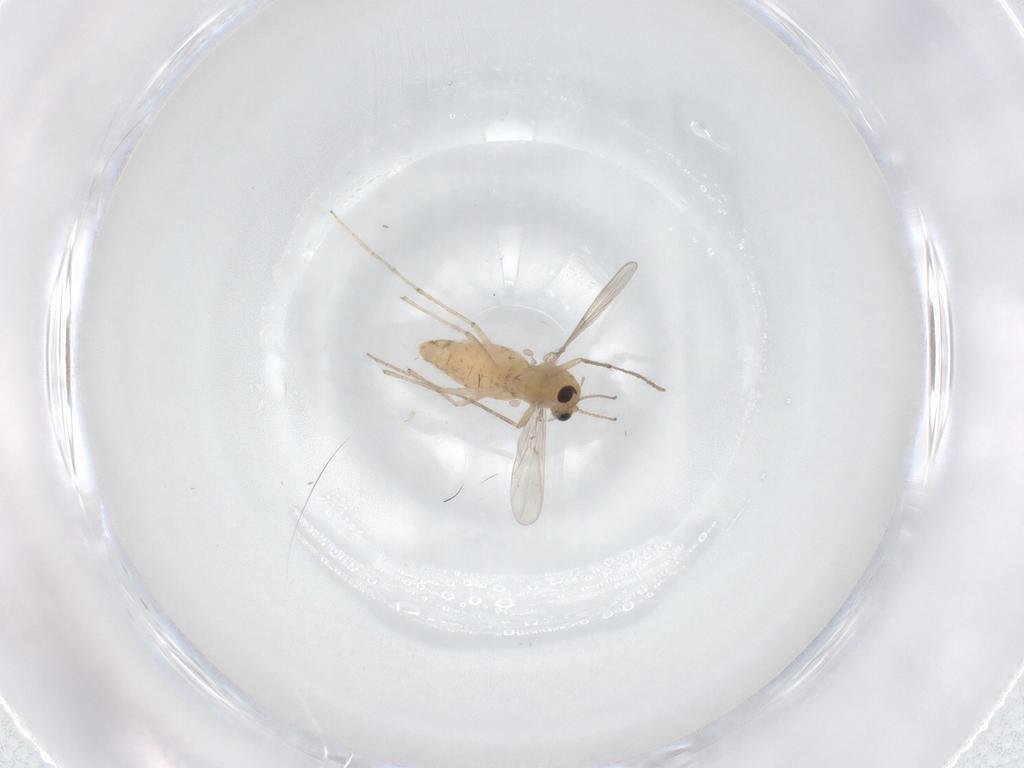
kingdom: Animalia
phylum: Arthropoda
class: Insecta
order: Diptera
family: Chironomidae
